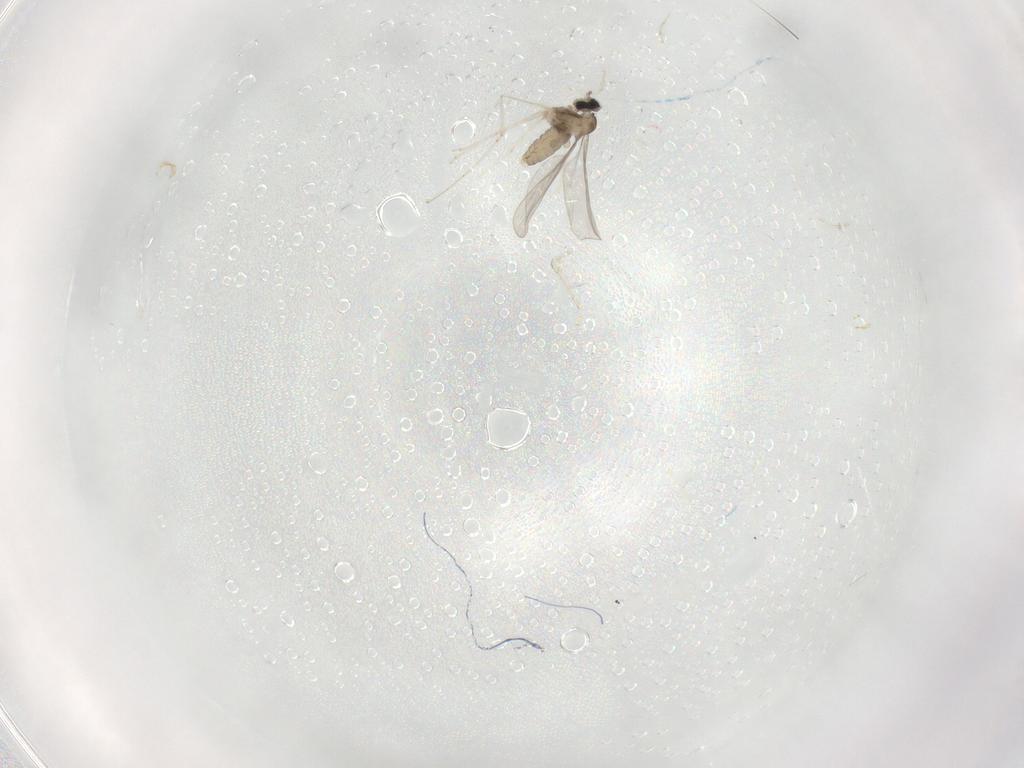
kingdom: Animalia
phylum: Arthropoda
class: Insecta
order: Diptera
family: Phoridae
